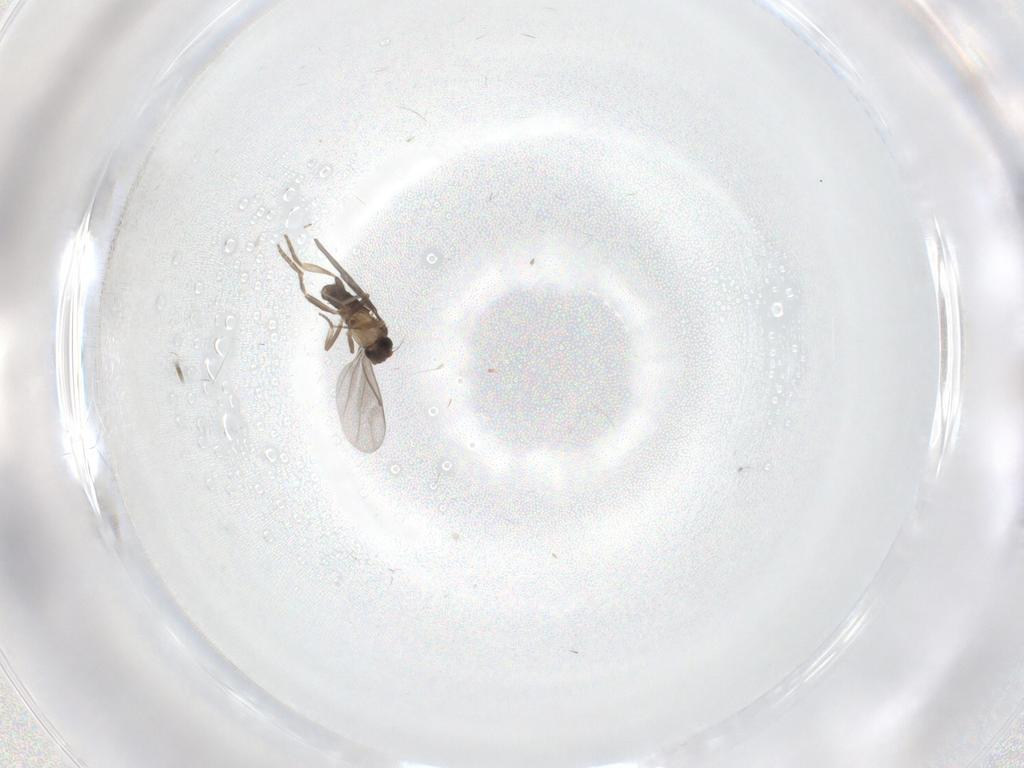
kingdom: Animalia
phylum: Arthropoda
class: Insecta
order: Diptera
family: Phoridae
